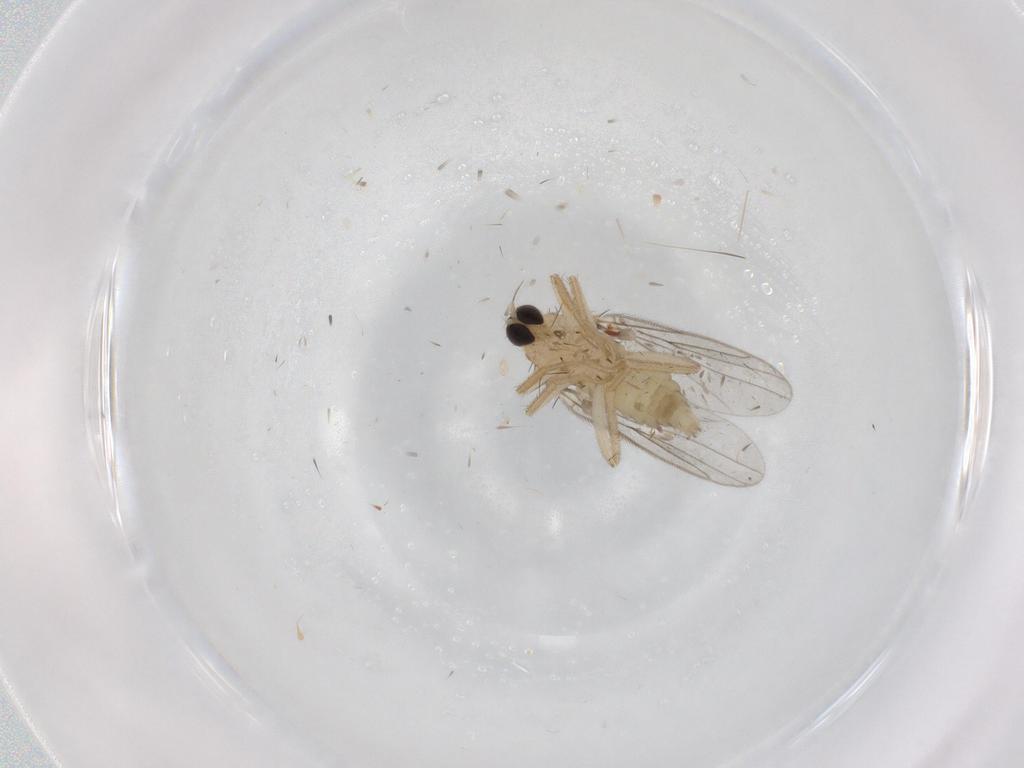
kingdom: Animalia
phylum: Arthropoda
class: Insecta
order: Diptera
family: Hybotidae
